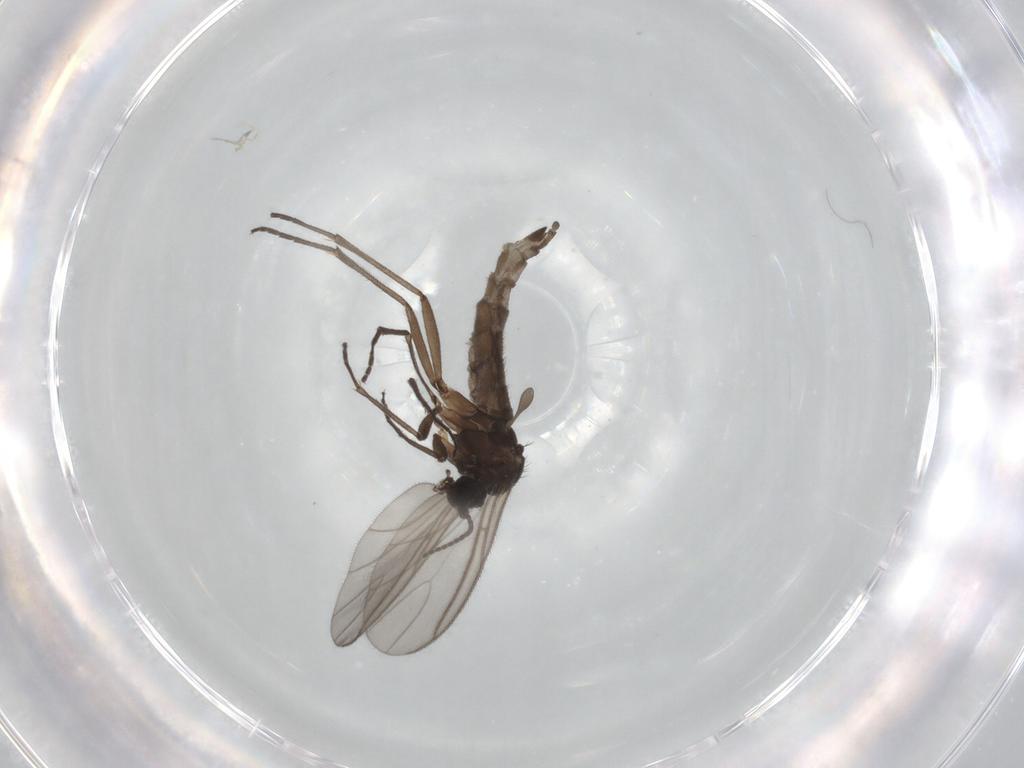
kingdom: Animalia
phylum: Arthropoda
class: Insecta
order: Diptera
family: Sciaridae
